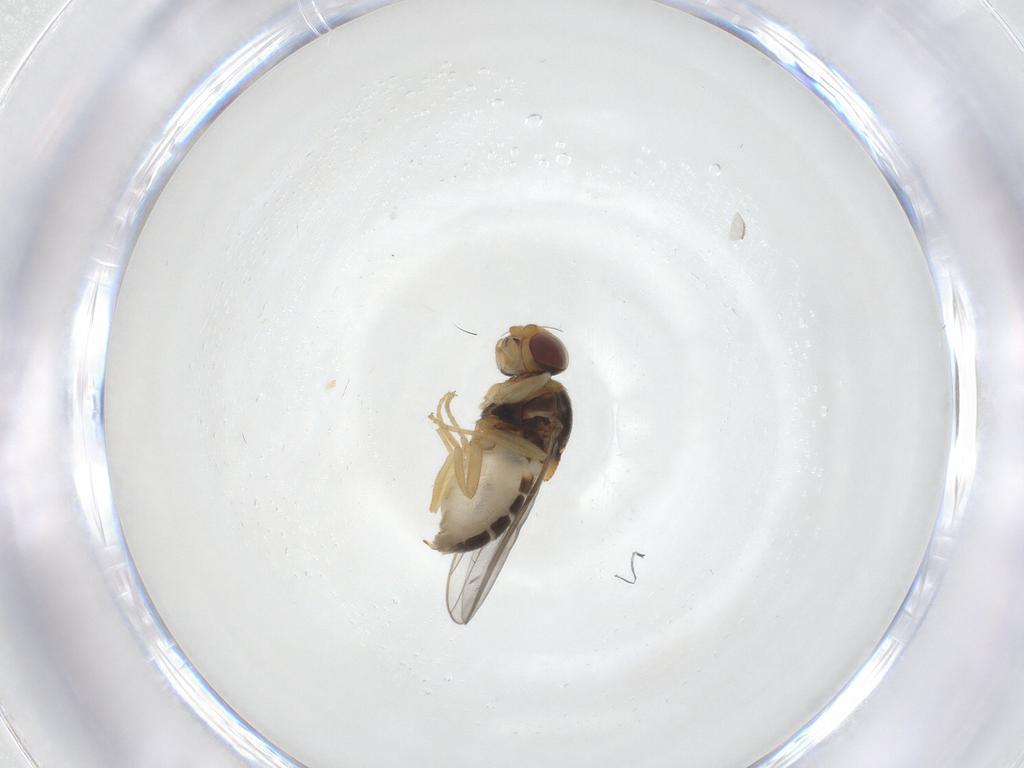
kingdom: Animalia
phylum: Arthropoda
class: Insecta
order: Diptera
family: Chloropidae
